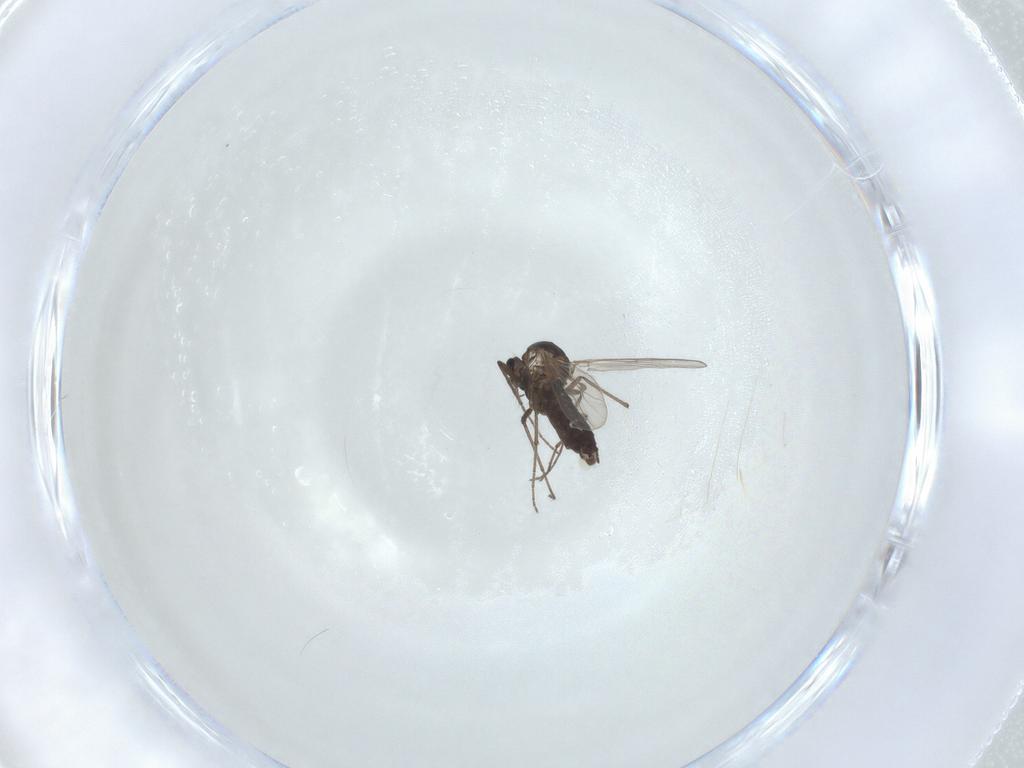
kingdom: Animalia
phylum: Arthropoda
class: Insecta
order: Diptera
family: Chironomidae
